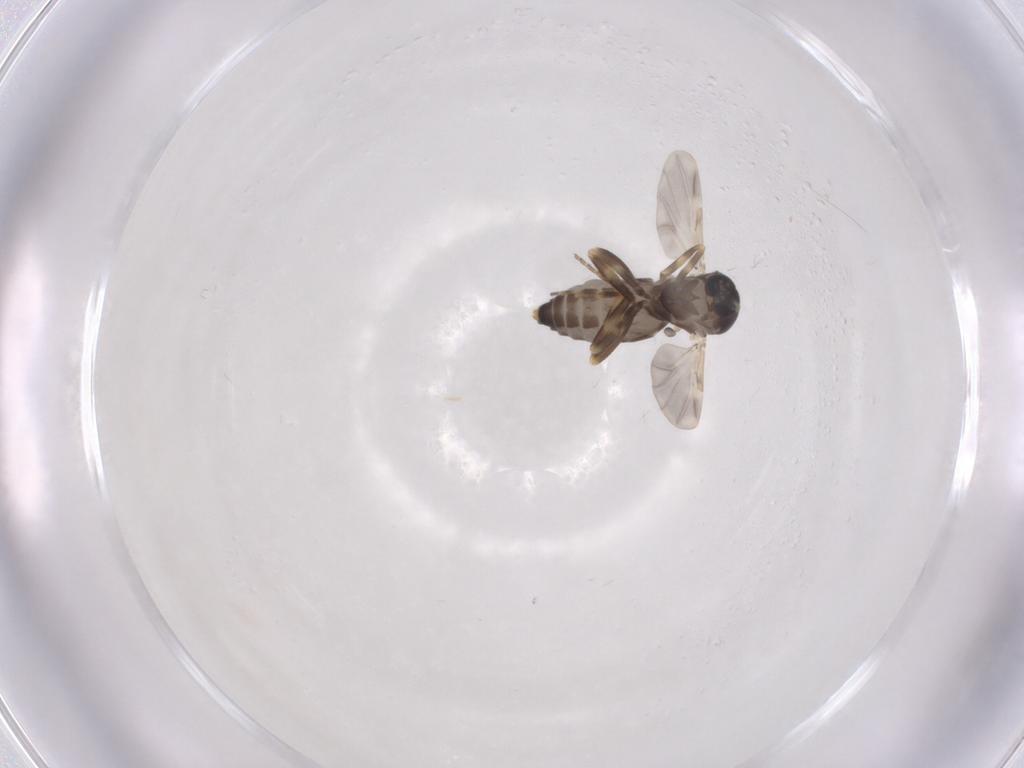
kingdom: Animalia
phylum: Arthropoda
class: Insecta
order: Diptera
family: Ceratopogonidae
